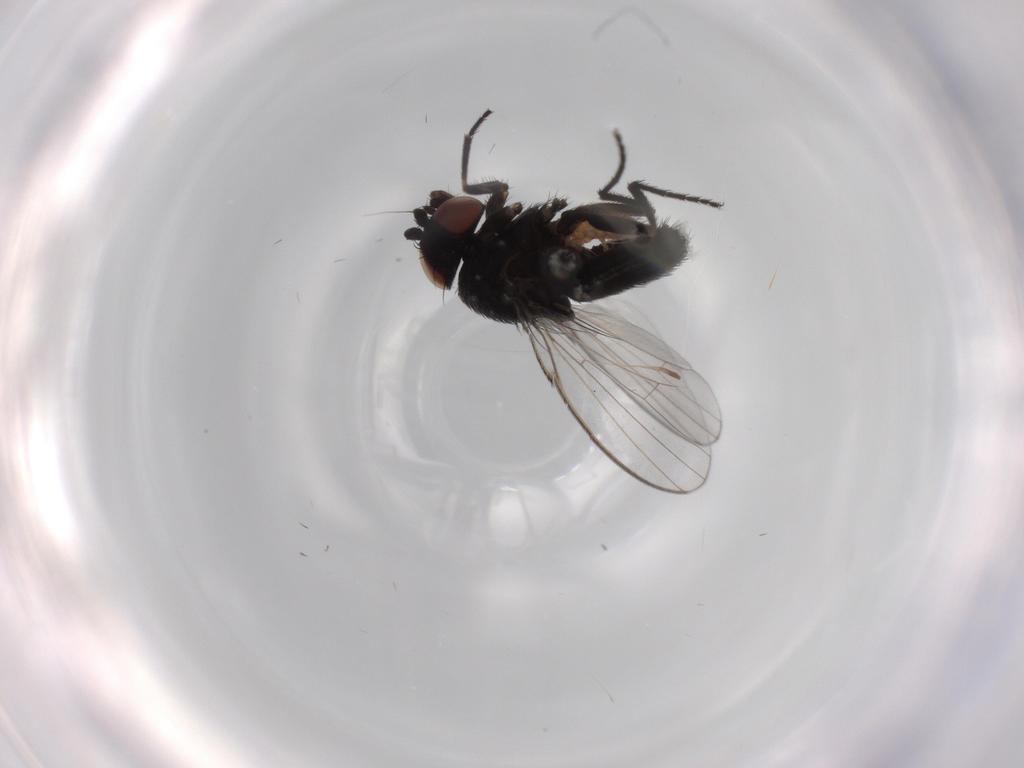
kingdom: Animalia
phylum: Arthropoda
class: Insecta
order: Diptera
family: Milichiidae
